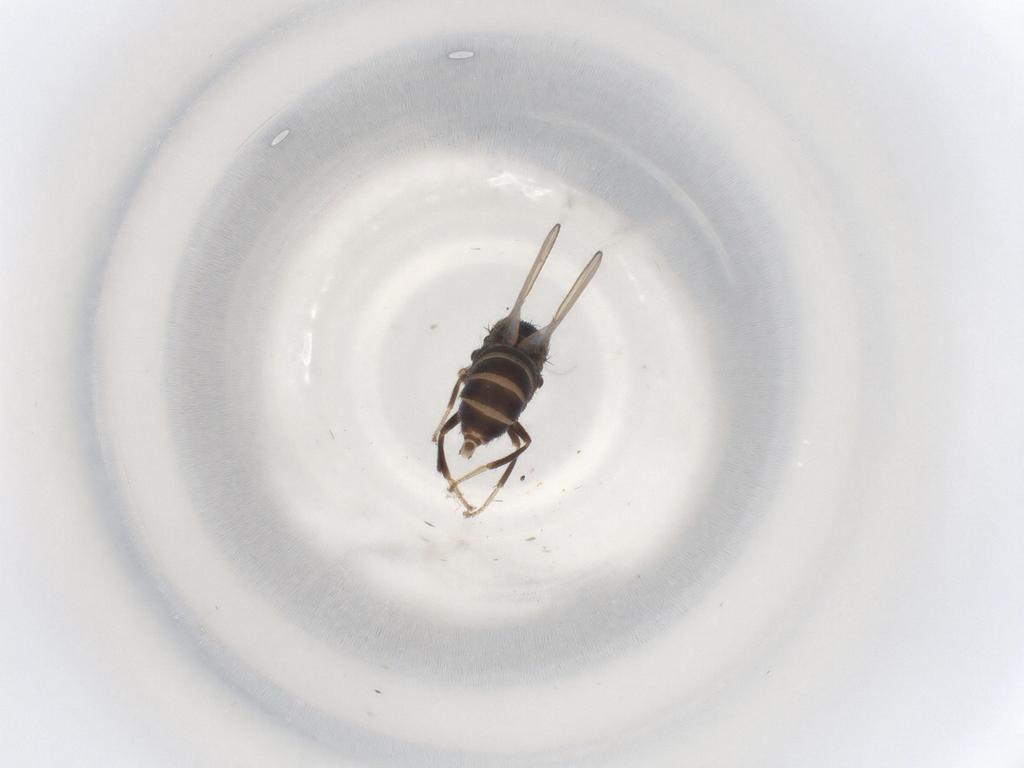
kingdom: Animalia
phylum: Arthropoda
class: Insecta
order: Diptera
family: Drosophilidae
